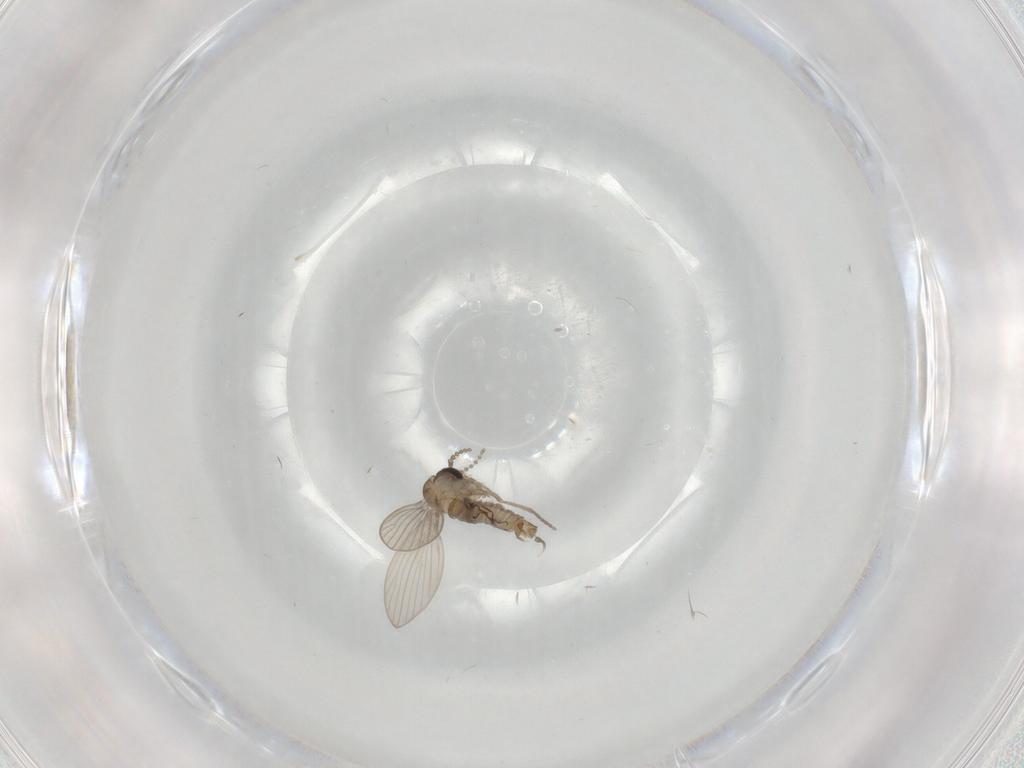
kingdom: Animalia
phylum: Arthropoda
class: Insecta
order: Diptera
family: Psychodidae
